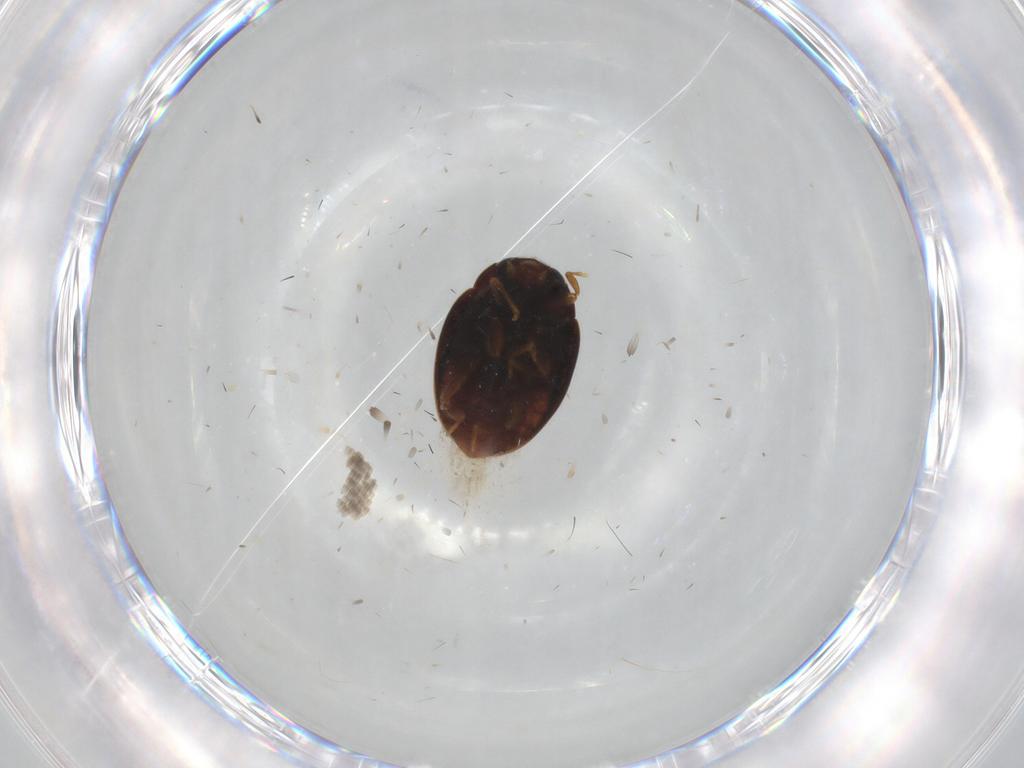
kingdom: Animalia
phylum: Arthropoda
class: Insecta
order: Coleoptera
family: Coccinellidae
